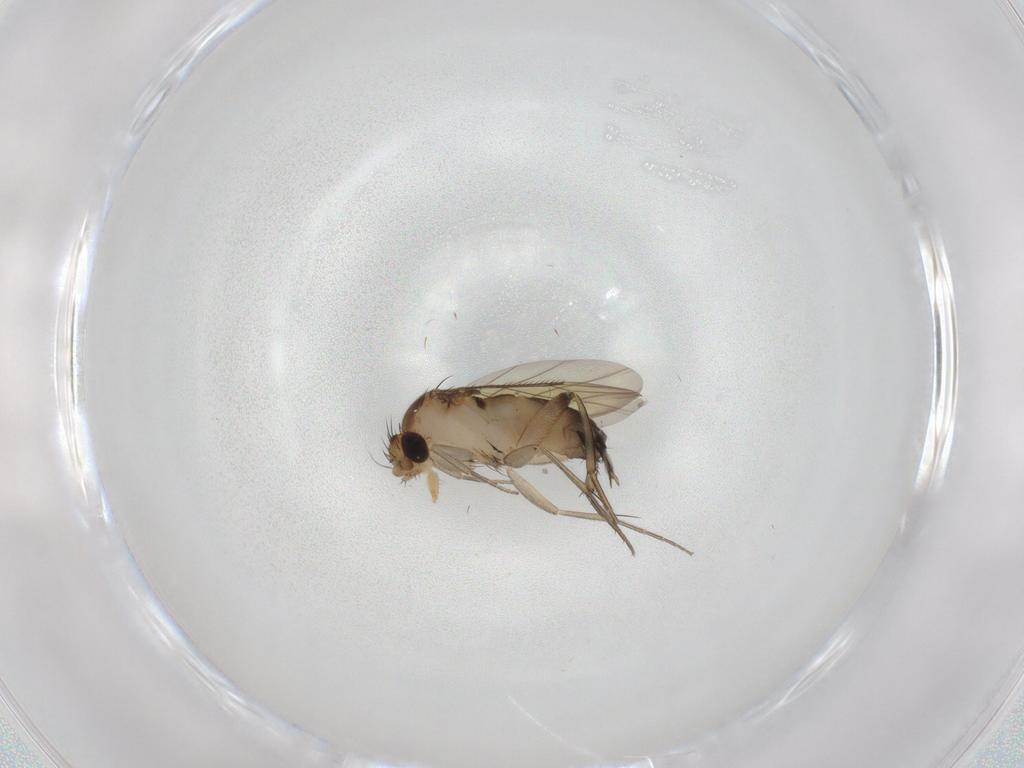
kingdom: Animalia
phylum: Arthropoda
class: Insecta
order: Diptera
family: Phoridae
